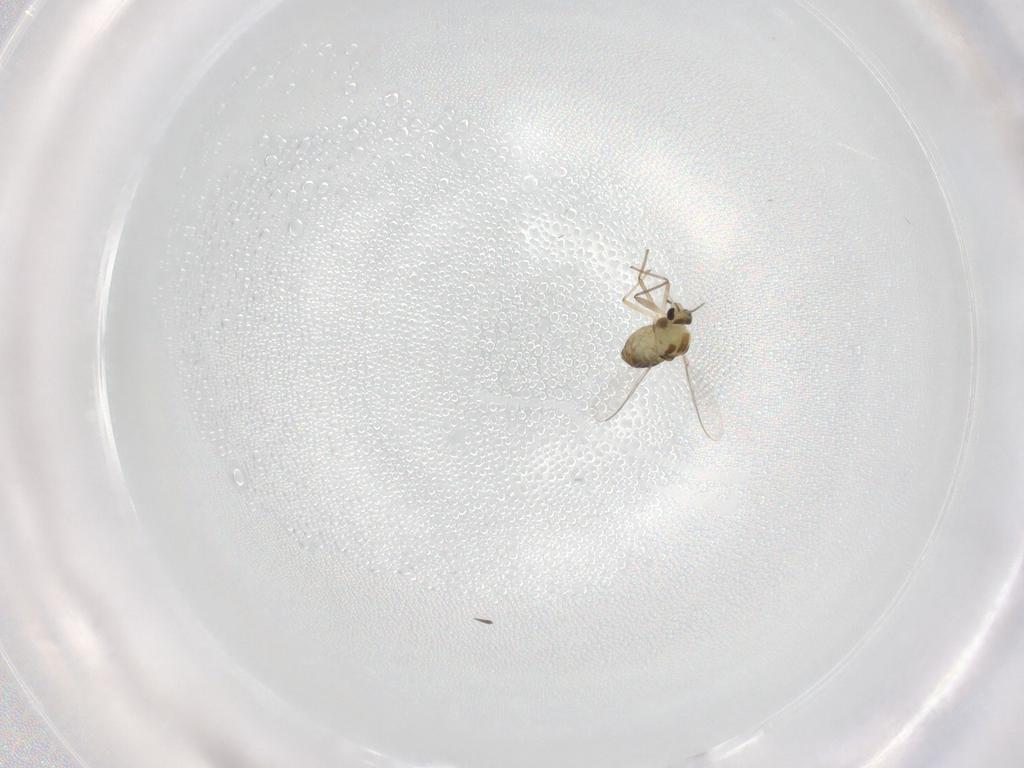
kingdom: Animalia
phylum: Arthropoda
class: Insecta
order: Diptera
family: Chironomidae
